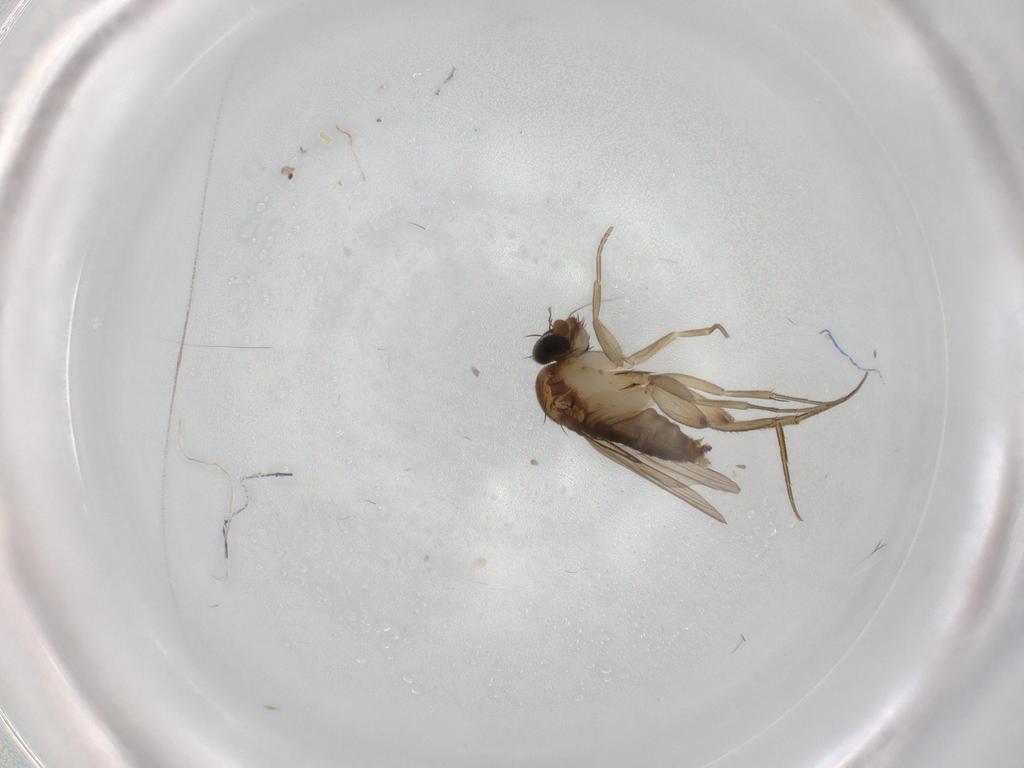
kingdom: Animalia
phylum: Arthropoda
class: Insecta
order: Diptera
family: Phoridae
